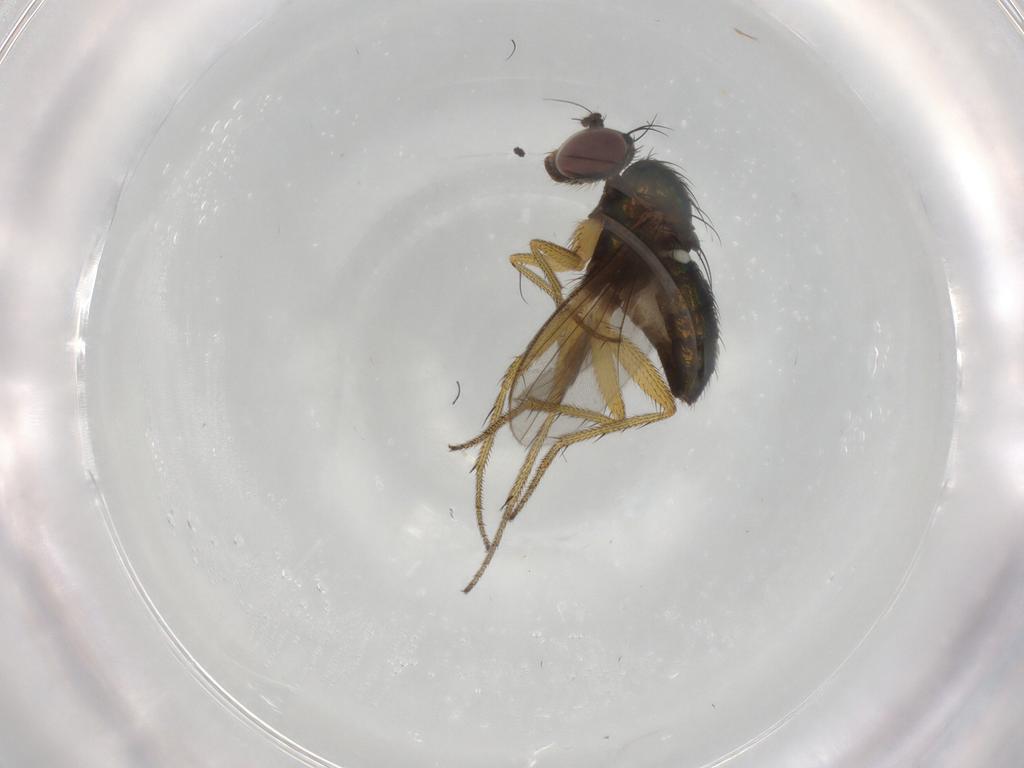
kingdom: Animalia
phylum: Arthropoda
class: Insecta
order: Diptera
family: Dolichopodidae
